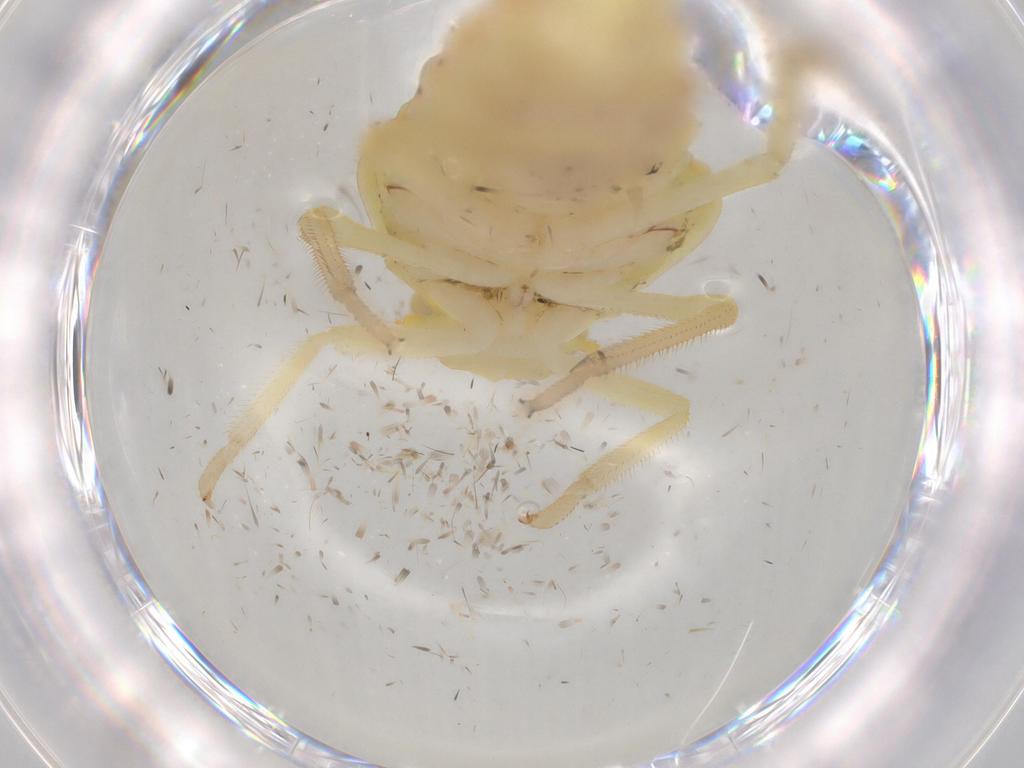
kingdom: Animalia
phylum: Arthropoda
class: Insecta
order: Hemiptera
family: Tropiduchidae
